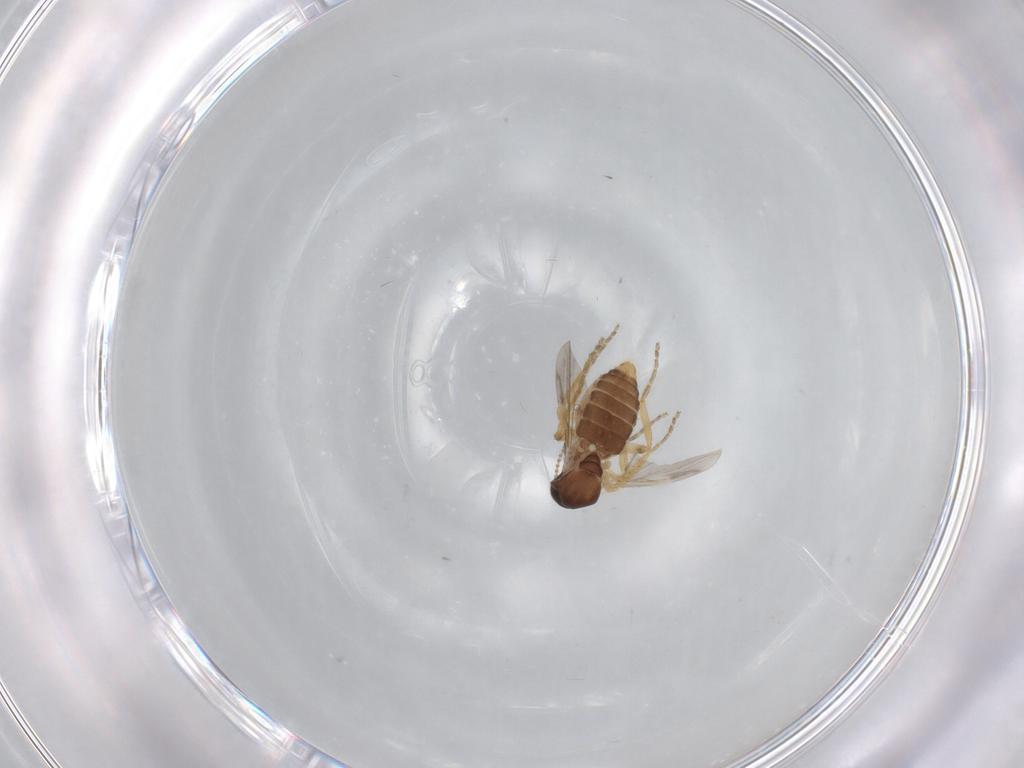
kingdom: Animalia
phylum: Arthropoda
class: Insecta
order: Diptera
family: Ceratopogonidae
